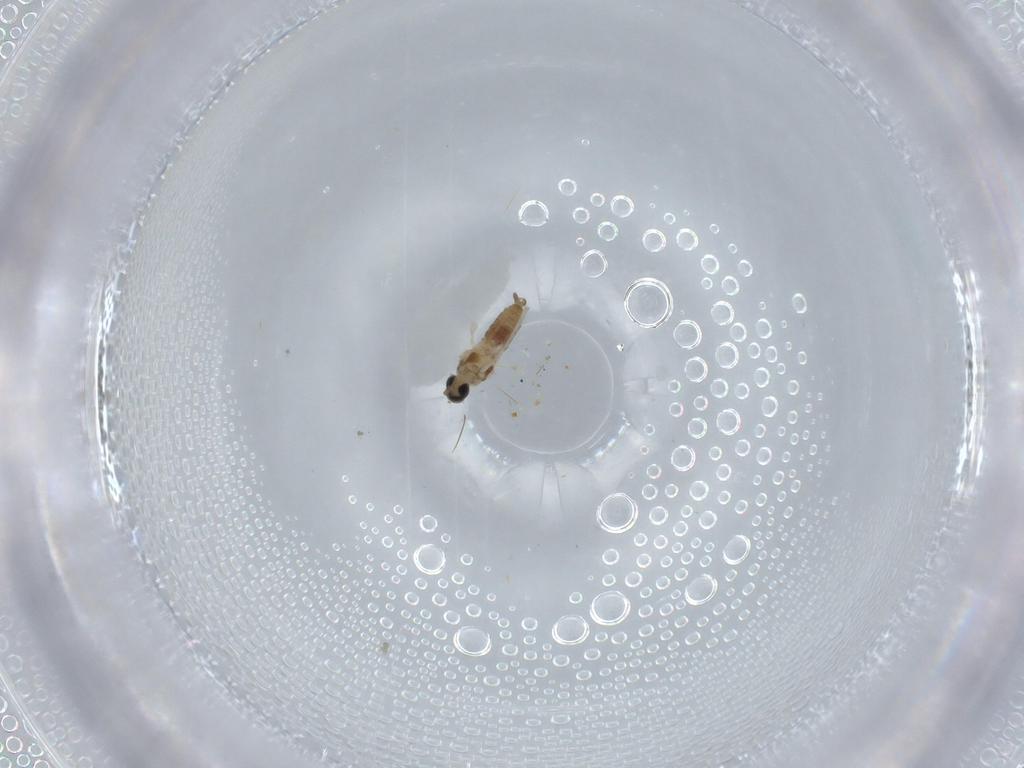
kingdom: Animalia
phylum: Arthropoda
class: Insecta
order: Diptera
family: Cecidomyiidae
